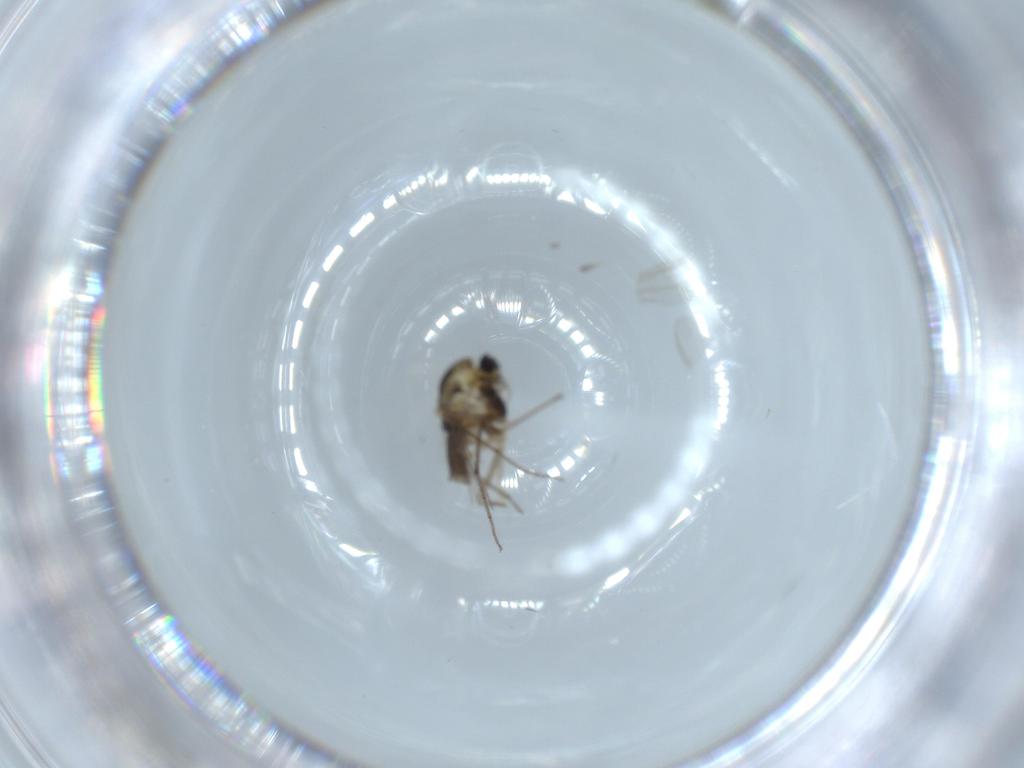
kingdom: Animalia
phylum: Arthropoda
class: Insecta
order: Diptera
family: Chironomidae
